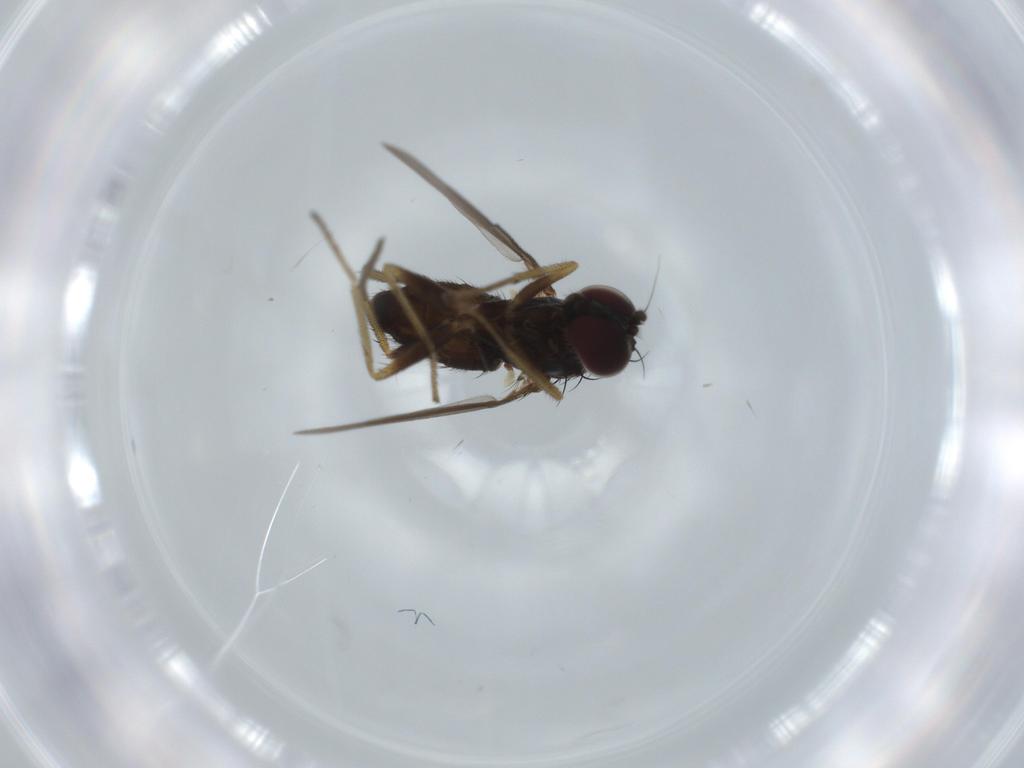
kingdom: Animalia
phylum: Arthropoda
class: Insecta
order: Diptera
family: Dolichopodidae
